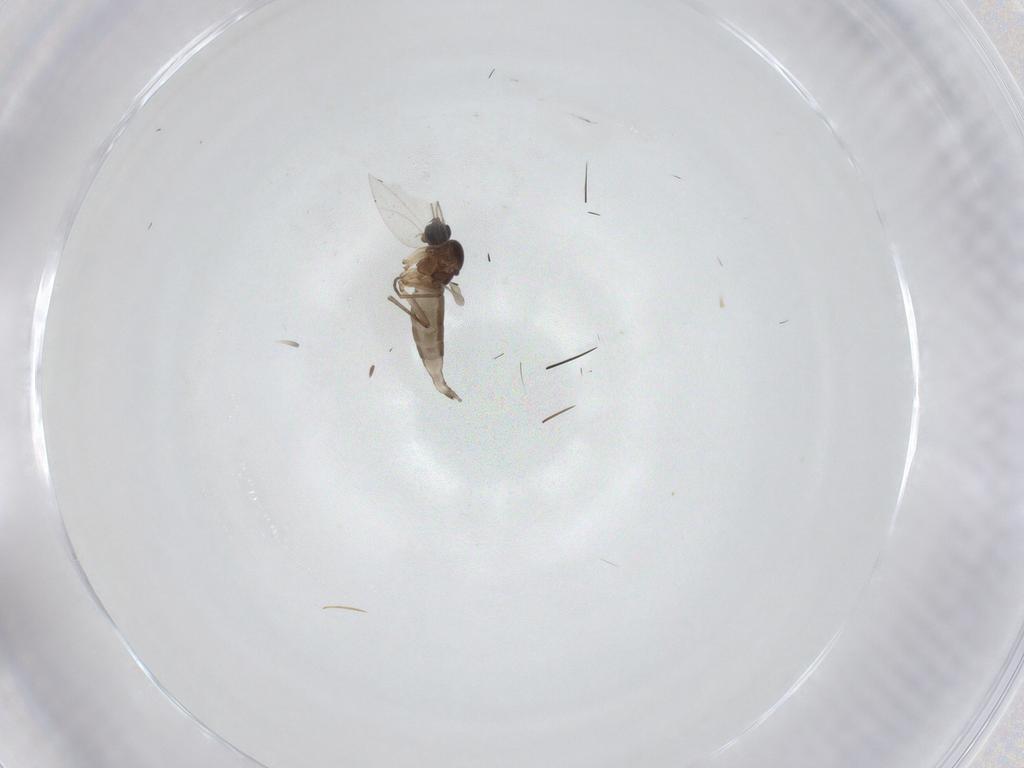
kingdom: Animalia
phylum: Arthropoda
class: Insecta
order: Diptera
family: Sciaridae
